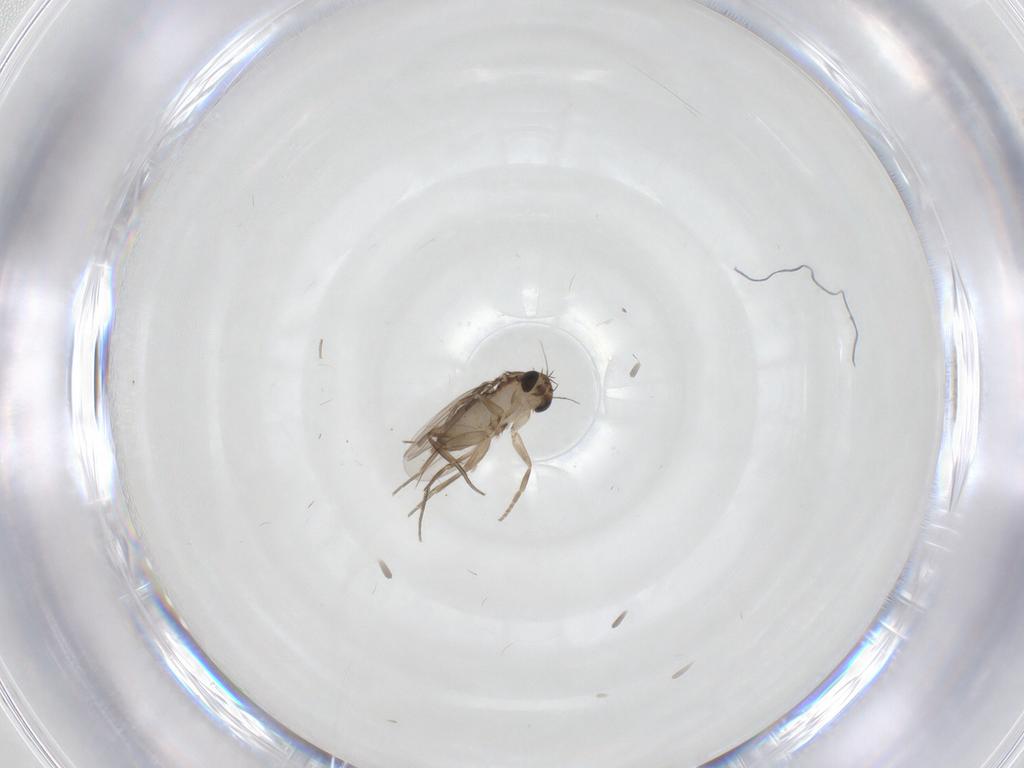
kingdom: Animalia
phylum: Arthropoda
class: Insecta
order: Diptera
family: Phoridae
